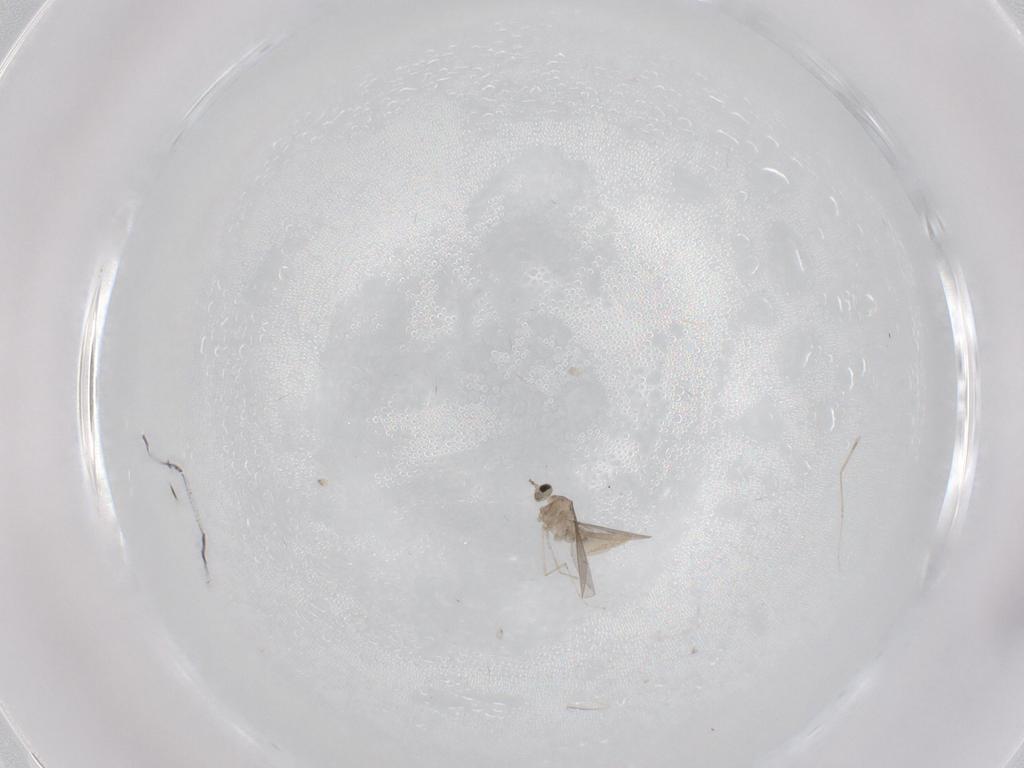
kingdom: Animalia
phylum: Arthropoda
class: Insecta
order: Diptera
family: Cecidomyiidae
